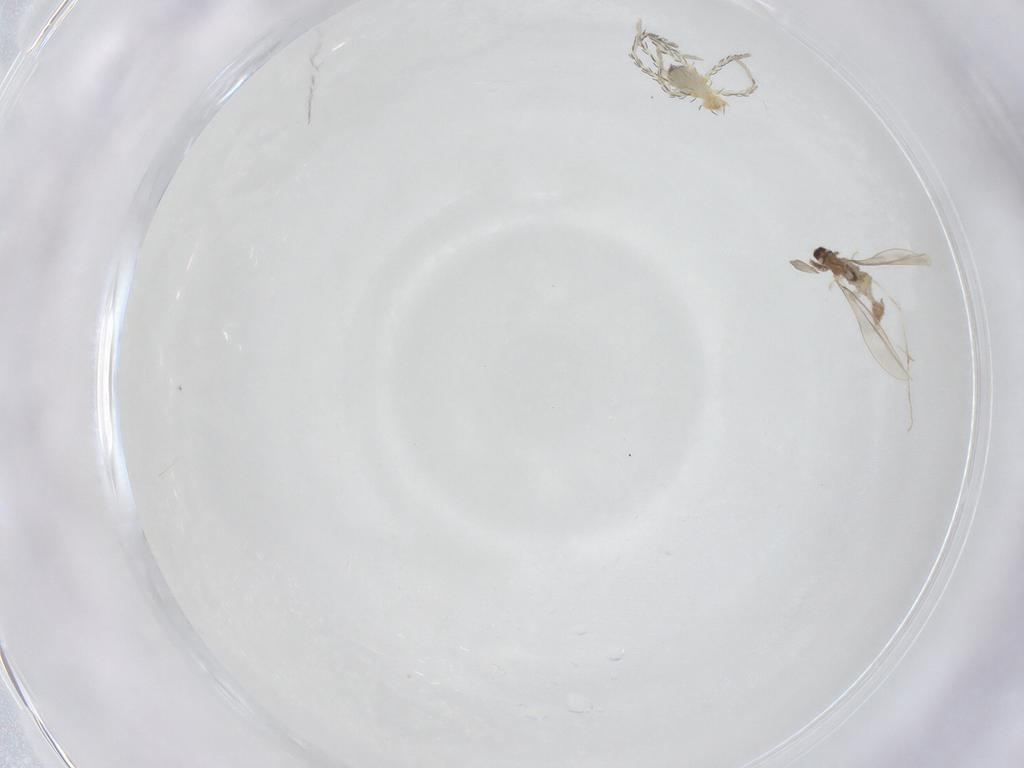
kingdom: Animalia
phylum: Arthropoda
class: Insecta
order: Diptera
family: Cecidomyiidae
